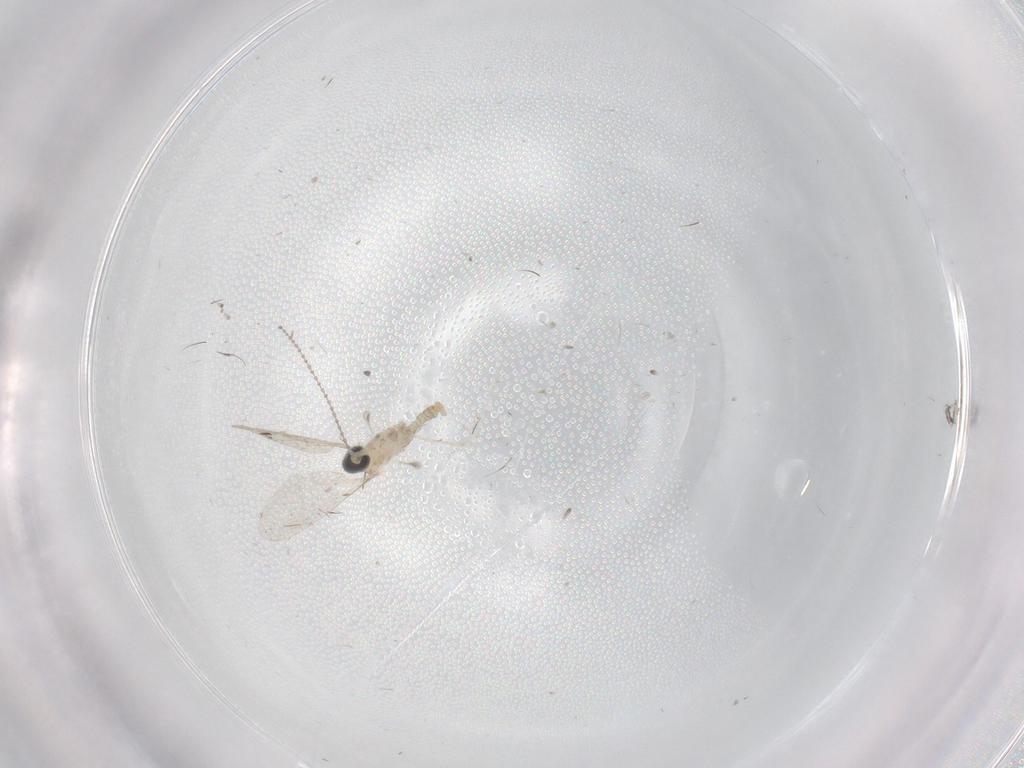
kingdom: Animalia
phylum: Arthropoda
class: Insecta
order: Diptera
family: Cecidomyiidae
